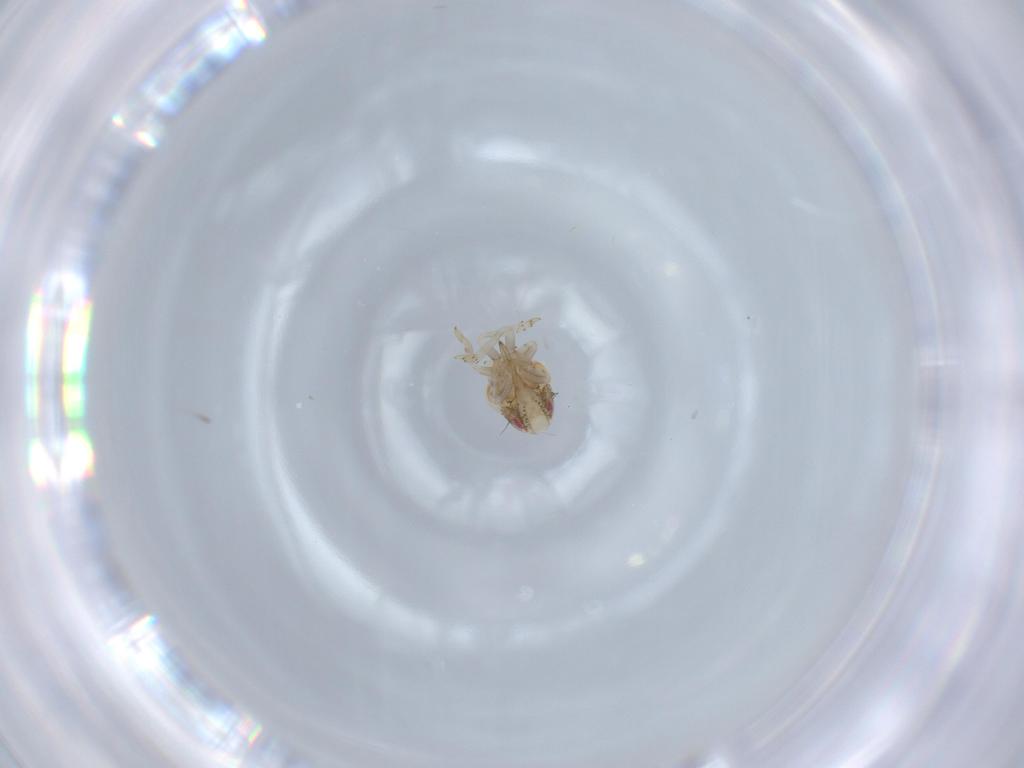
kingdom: Animalia
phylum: Arthropoda
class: Insecta
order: Hemiptera
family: Acanaloniidae
